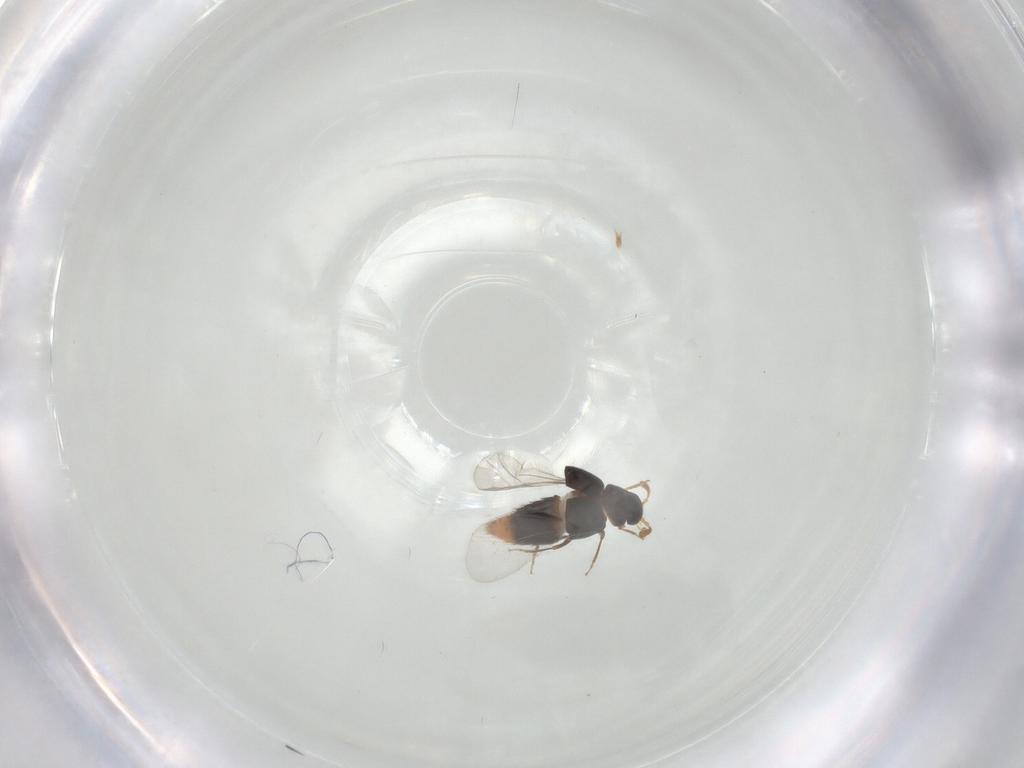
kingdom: Animalia
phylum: Arthropoda
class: Insecta
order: Coleoptera
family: Staphylinidae
